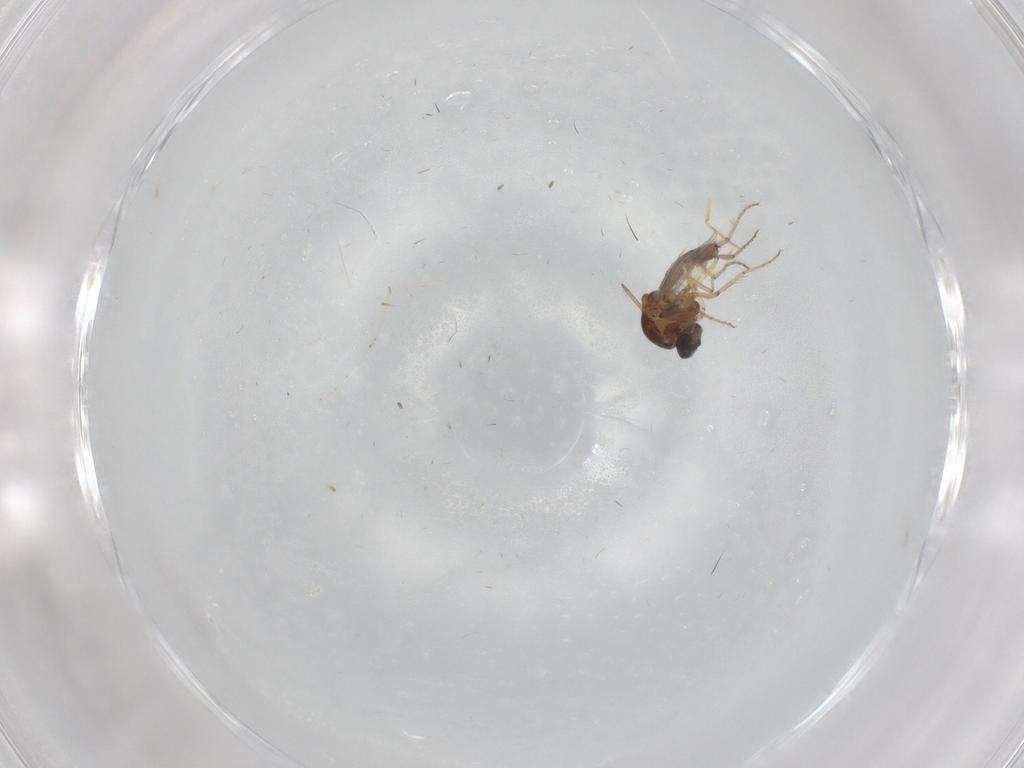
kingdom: Animalia
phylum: Arthropoda
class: Insecta
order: Diptera
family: Ceratopogonidae
